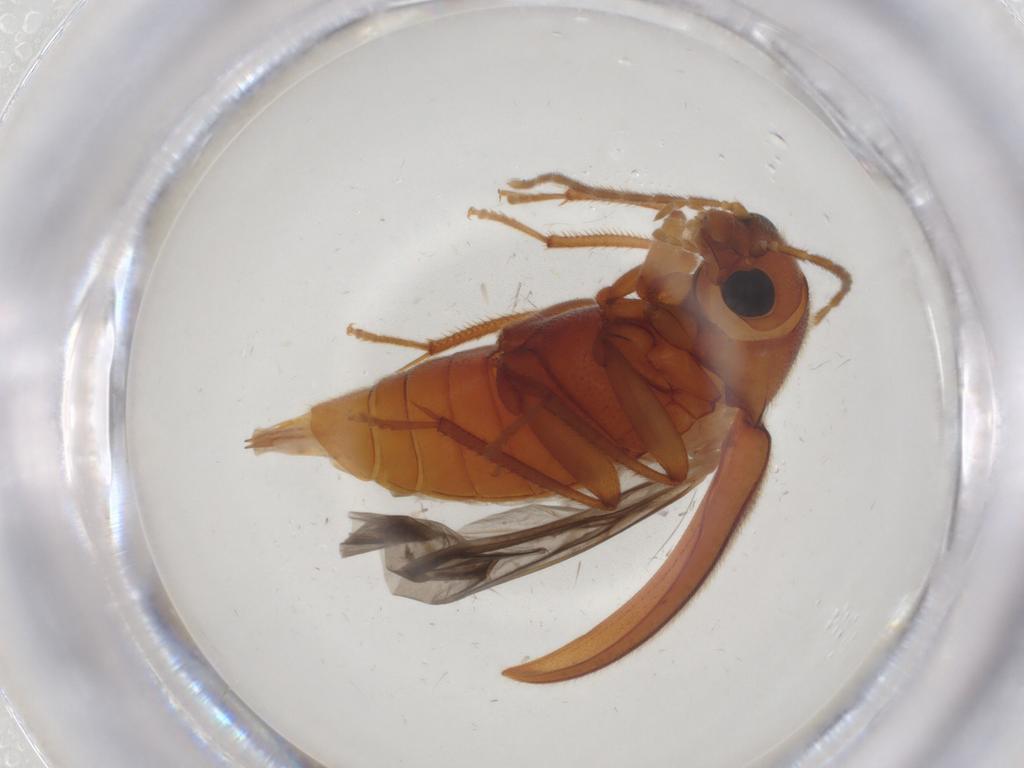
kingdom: Animalia
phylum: Arthropoda
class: Insecta
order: Coleoptera
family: Ptilodactylidae
